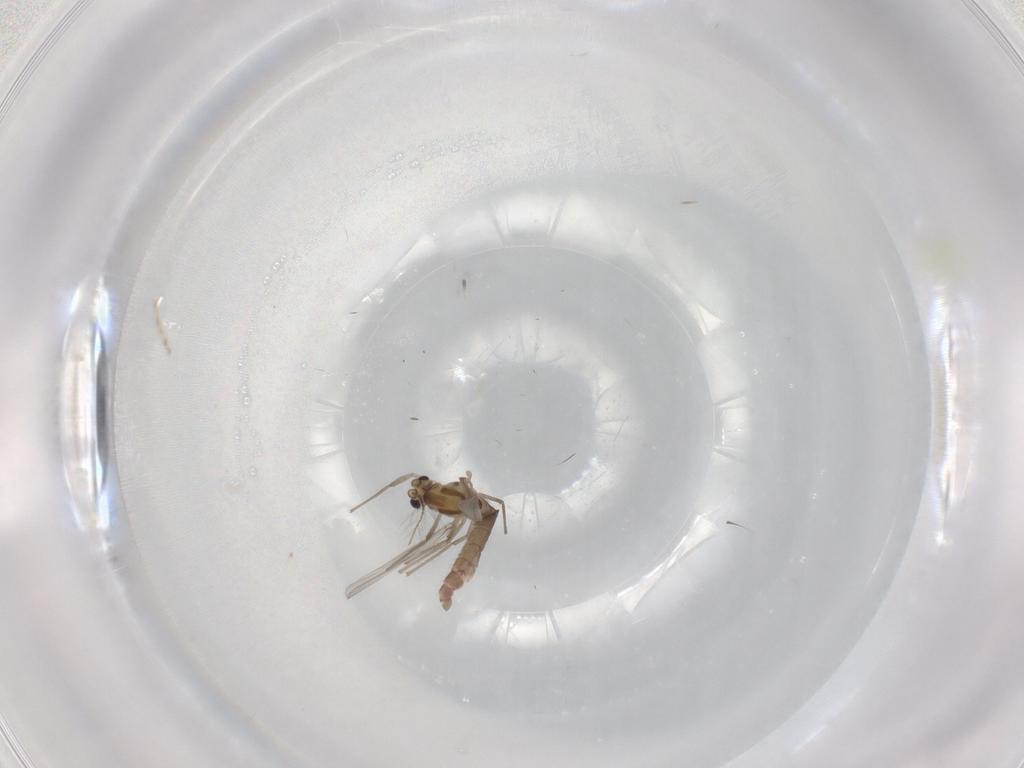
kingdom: Animalia
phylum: Arthropoda
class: Insecta
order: Diptera
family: Chironomidae
